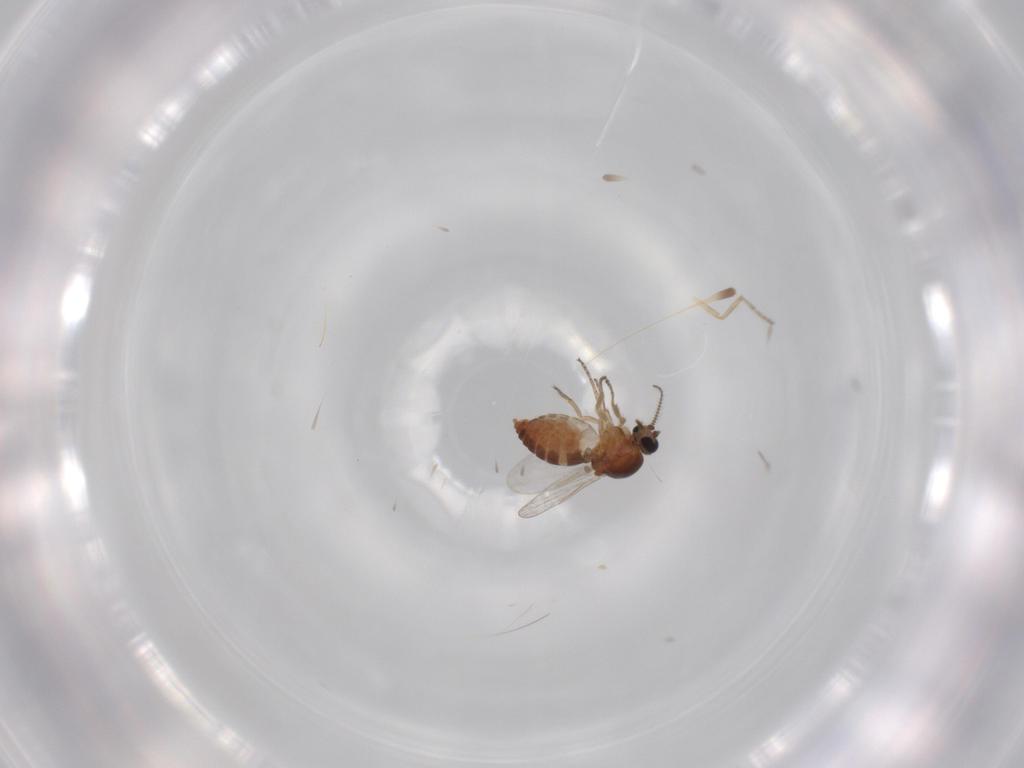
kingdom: Animalia
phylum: Arthropoda
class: Insecta
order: Diptera
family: Ceratopogonidae
